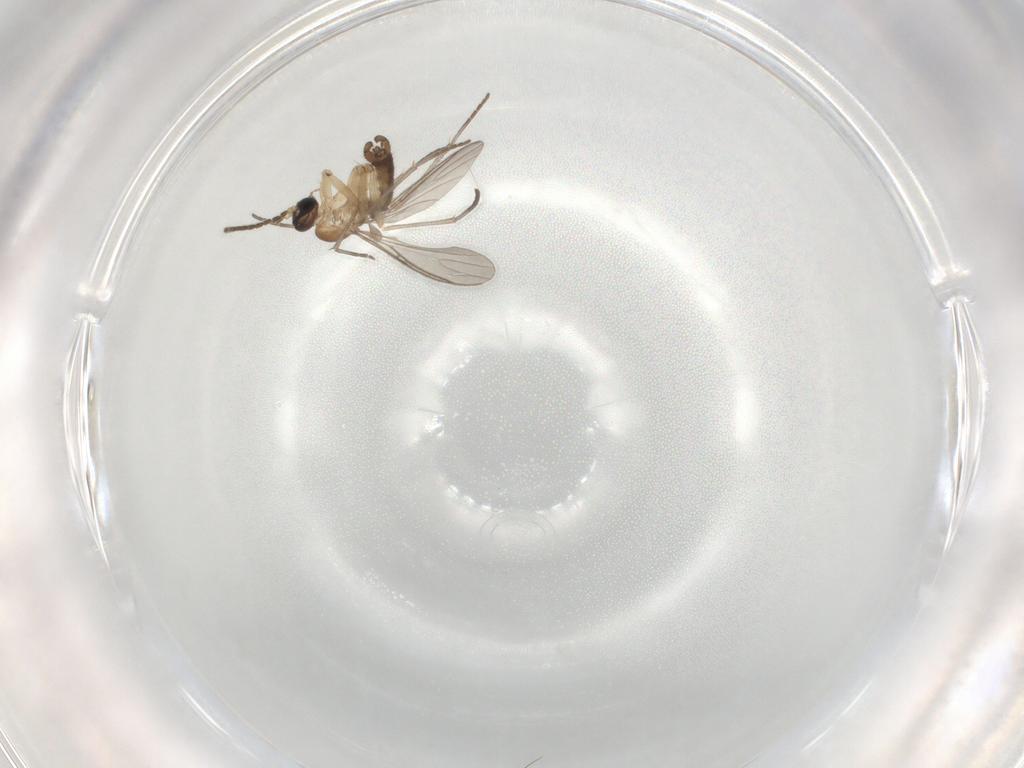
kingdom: Animalia
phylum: Arthropoda
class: Insecta
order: Diptera
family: Sciaridae
